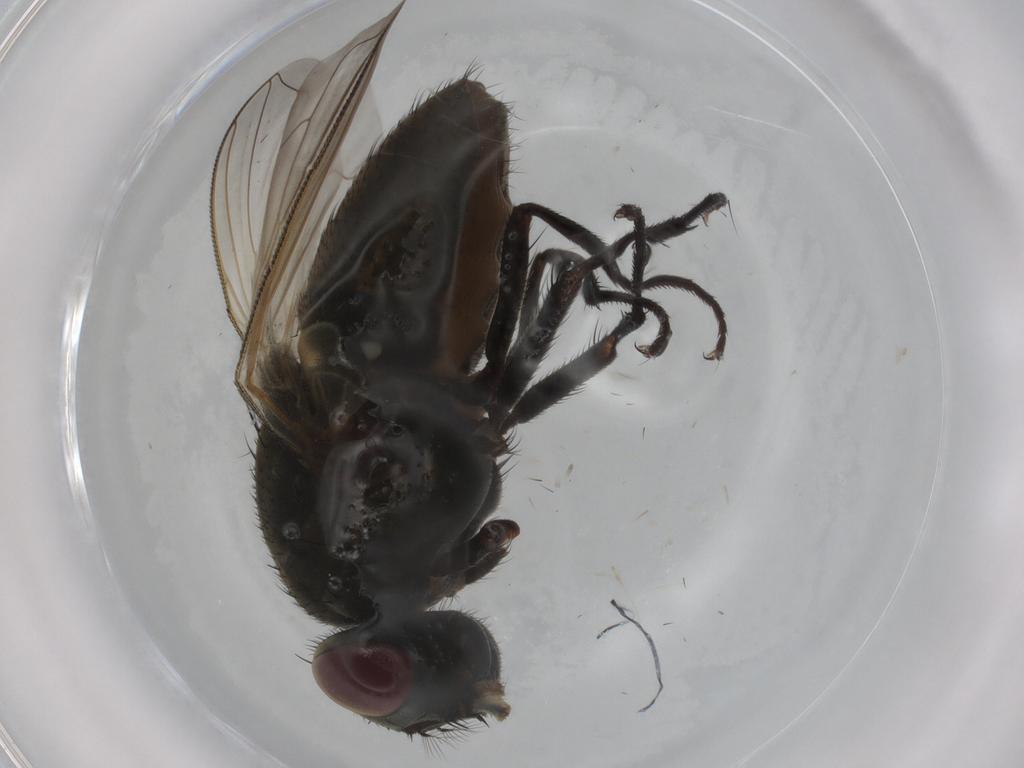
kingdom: Animalia
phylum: Arthropoda
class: Insecta
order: Diptera
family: Muscidae
